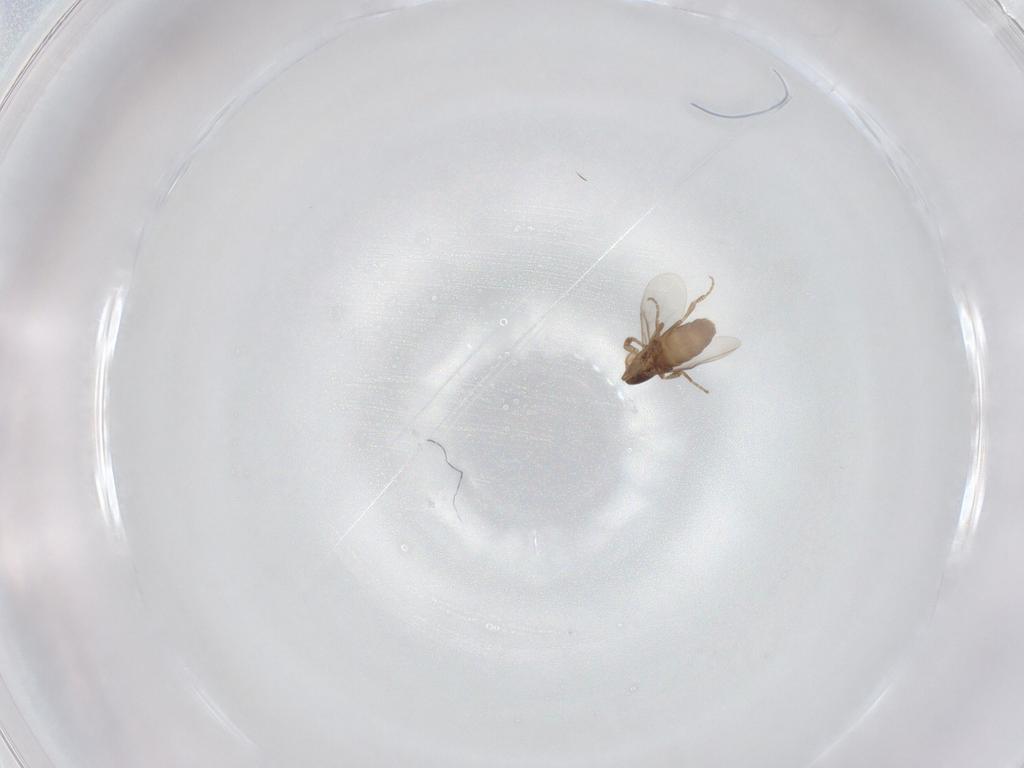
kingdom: Animalia
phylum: Arthropoda
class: Insecta
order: Diptera
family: Phoridae
